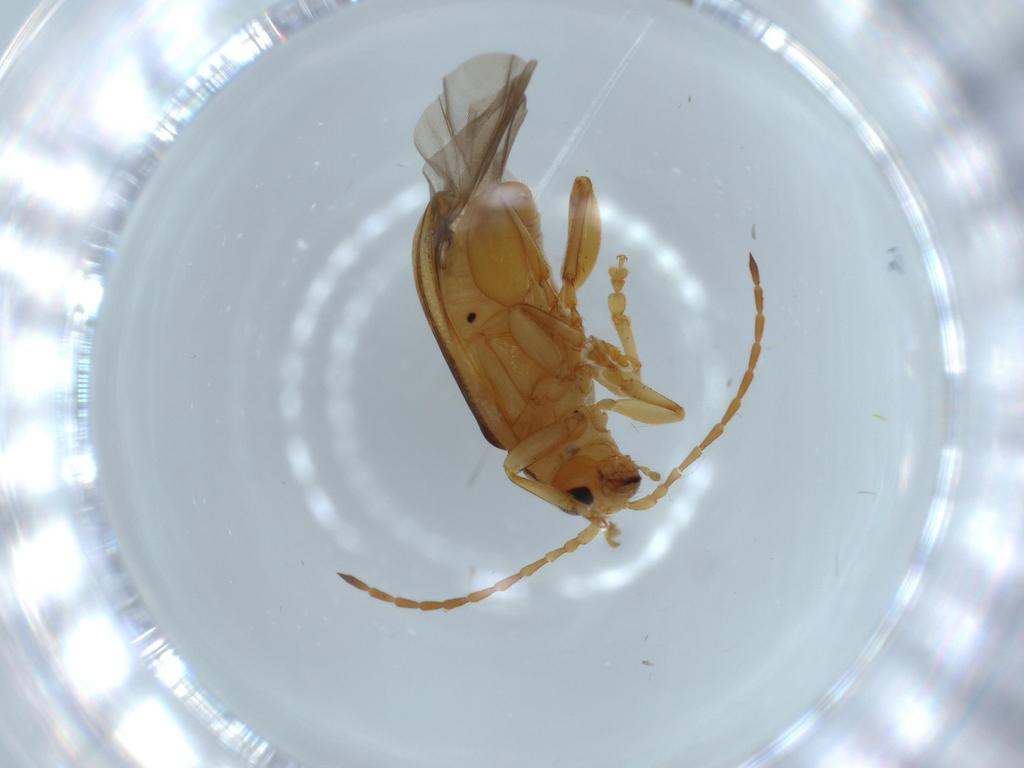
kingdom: Animalia
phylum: Arthropoda
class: Insecta
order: Coleoptera
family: Chrysomelidae
